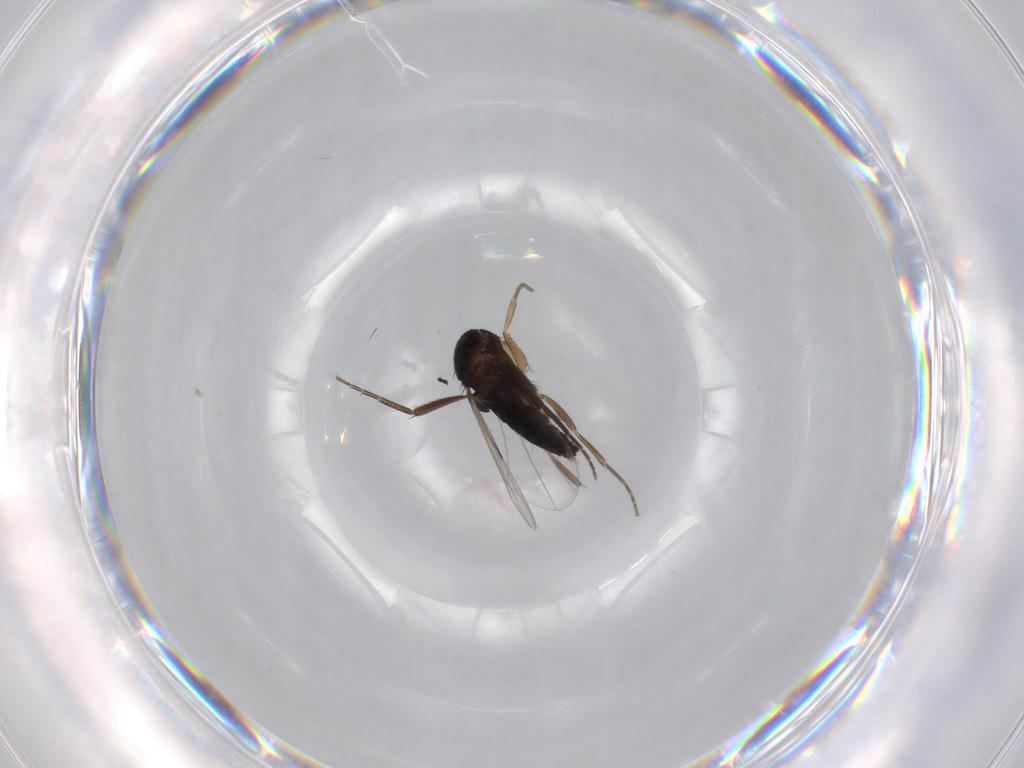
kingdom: Animalia
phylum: Arthropoda
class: Insecta
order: Diptera
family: Phoridae
